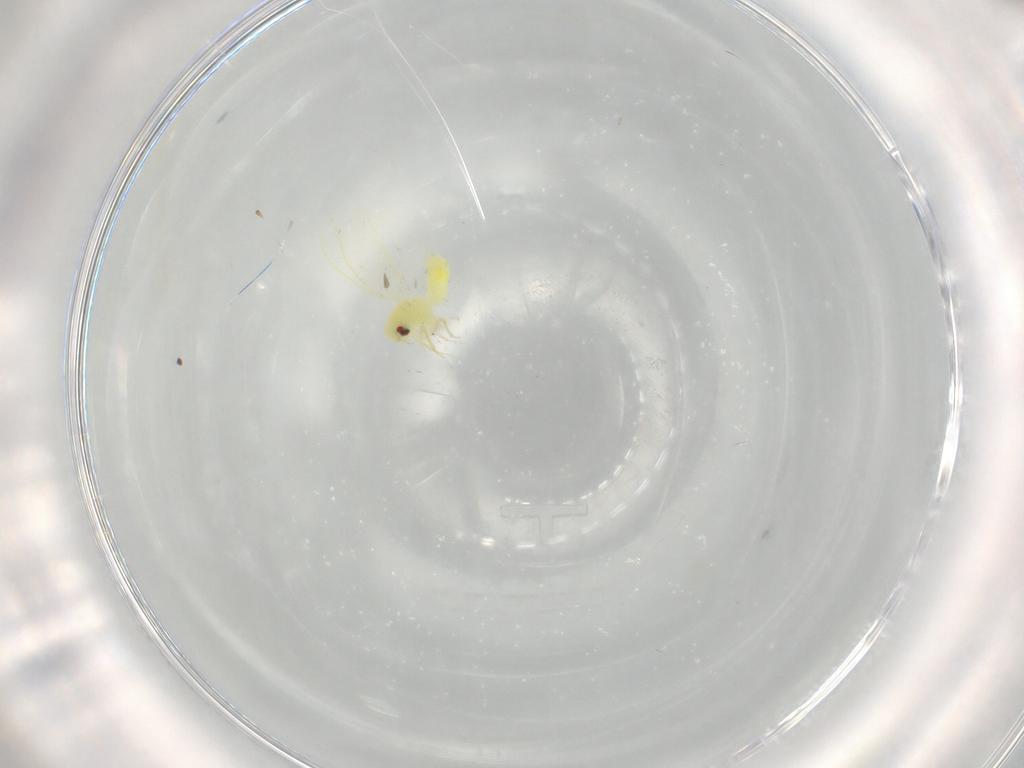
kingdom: Animalia
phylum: Arthropoda
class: Insecta
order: Hemiptera
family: Aleyrodidae
